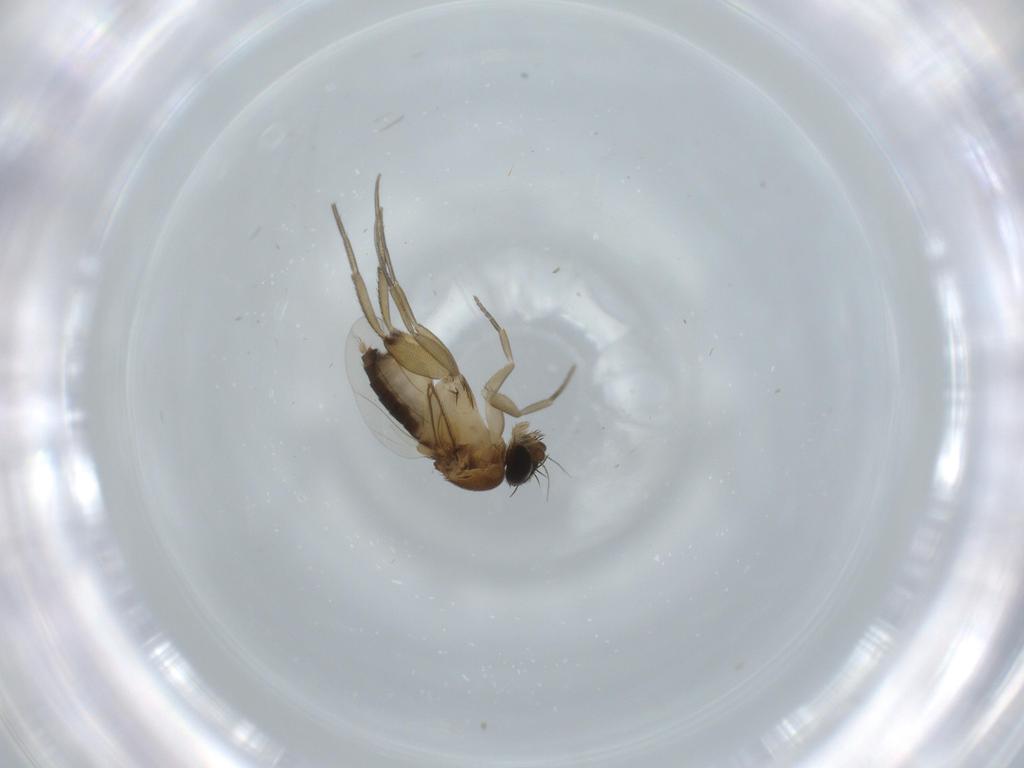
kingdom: Animalia
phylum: Arthropoda
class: Insecta
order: Diptera
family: Phoridae
